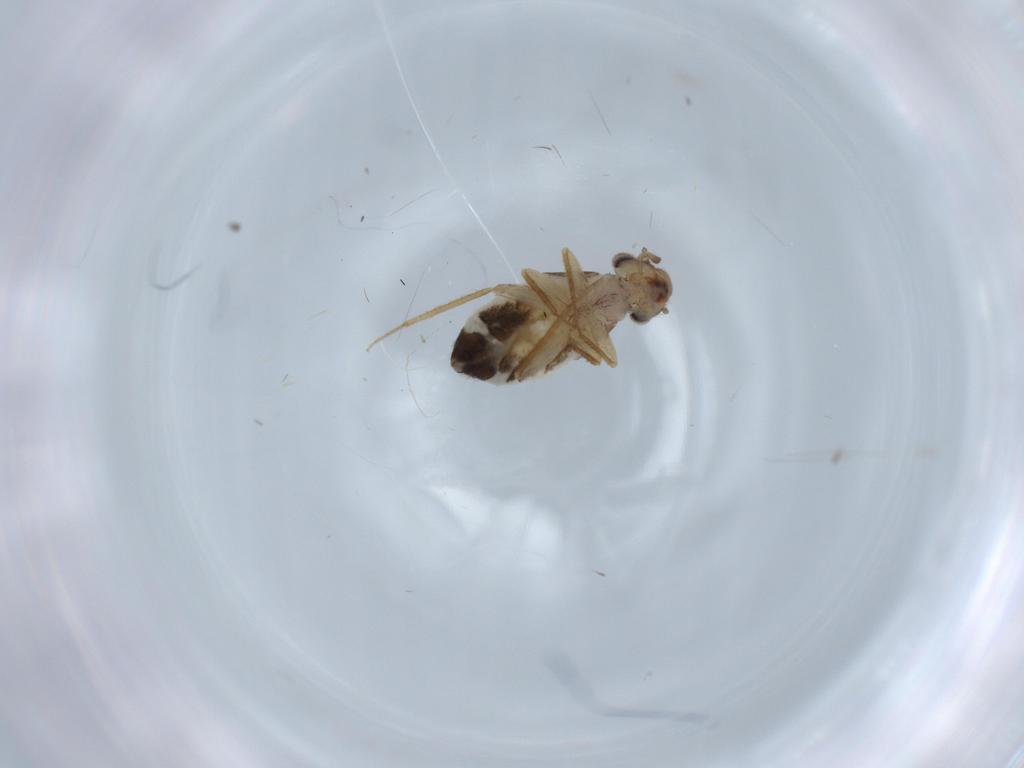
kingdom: Animalia
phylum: Arthropoda
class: Insecta
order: Psocodea
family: Lepidopsocidae
